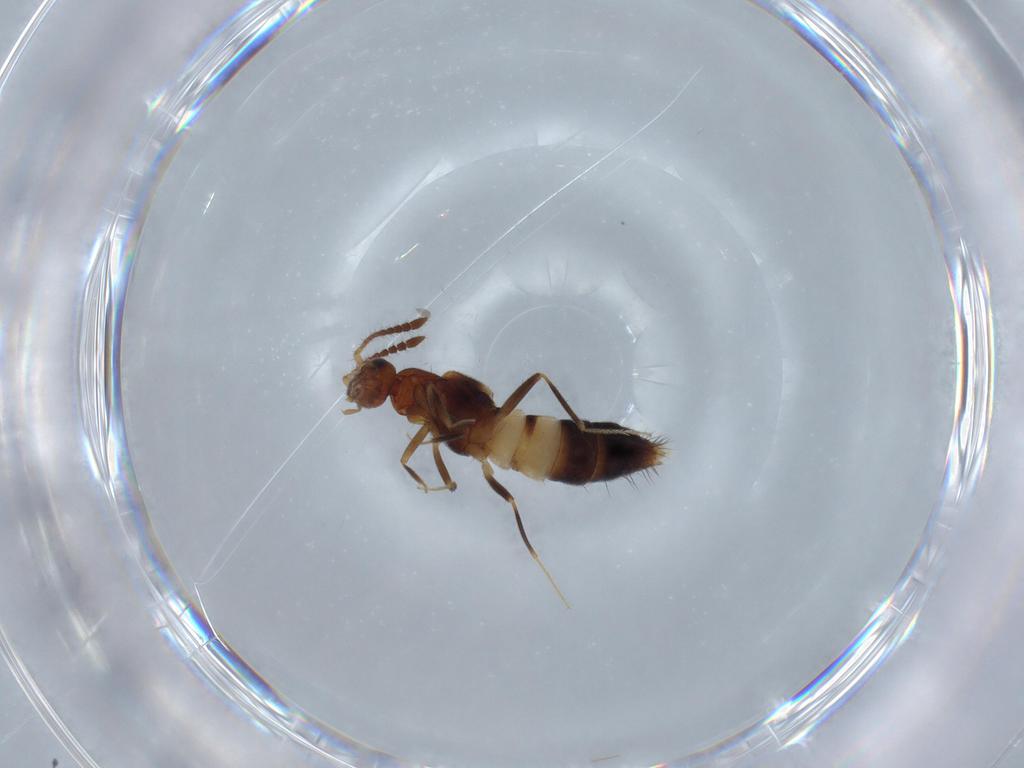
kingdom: Animalia
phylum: Arthropoda
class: Insecta
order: Coleoptera
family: Staphylinidae
